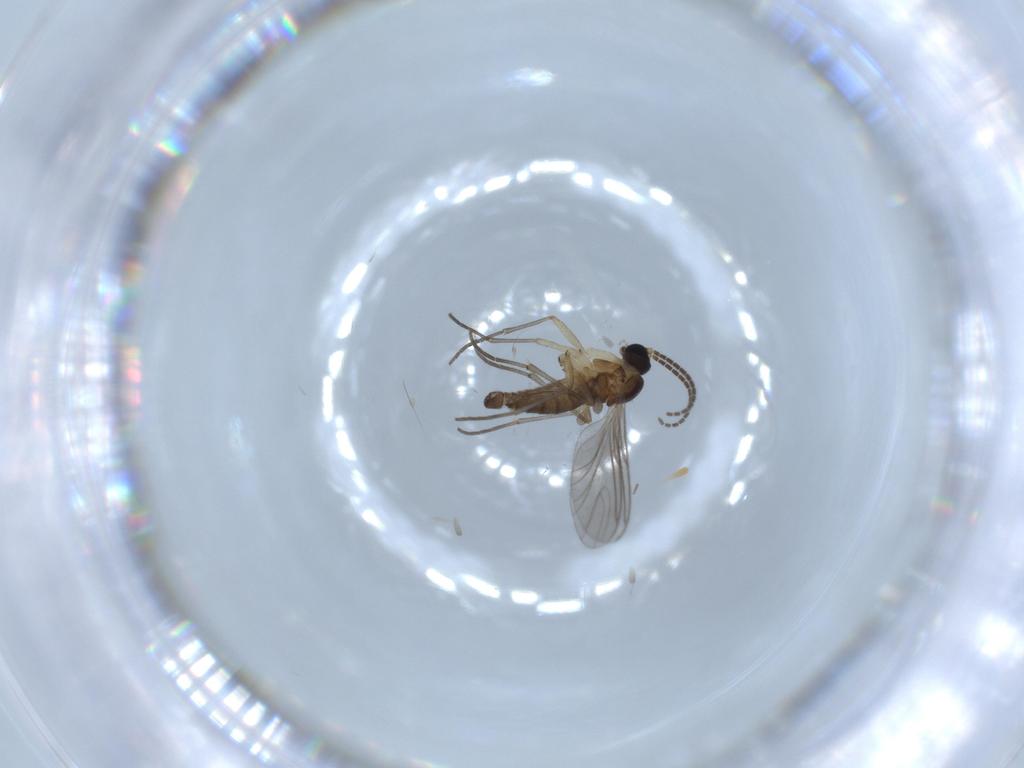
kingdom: Animalia
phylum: Arthropoda
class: Insecta
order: Diptera
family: Sciaridae
